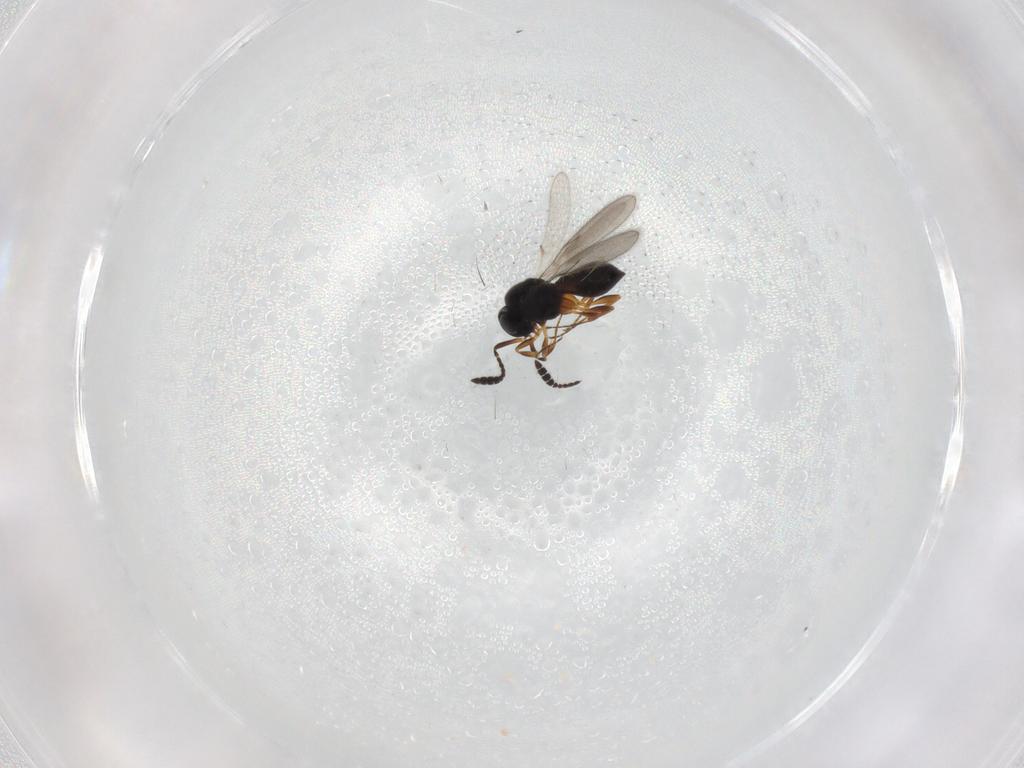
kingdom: Animalia
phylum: Arthropoda
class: Insecta
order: Hymenoptera
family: Scelionidae
